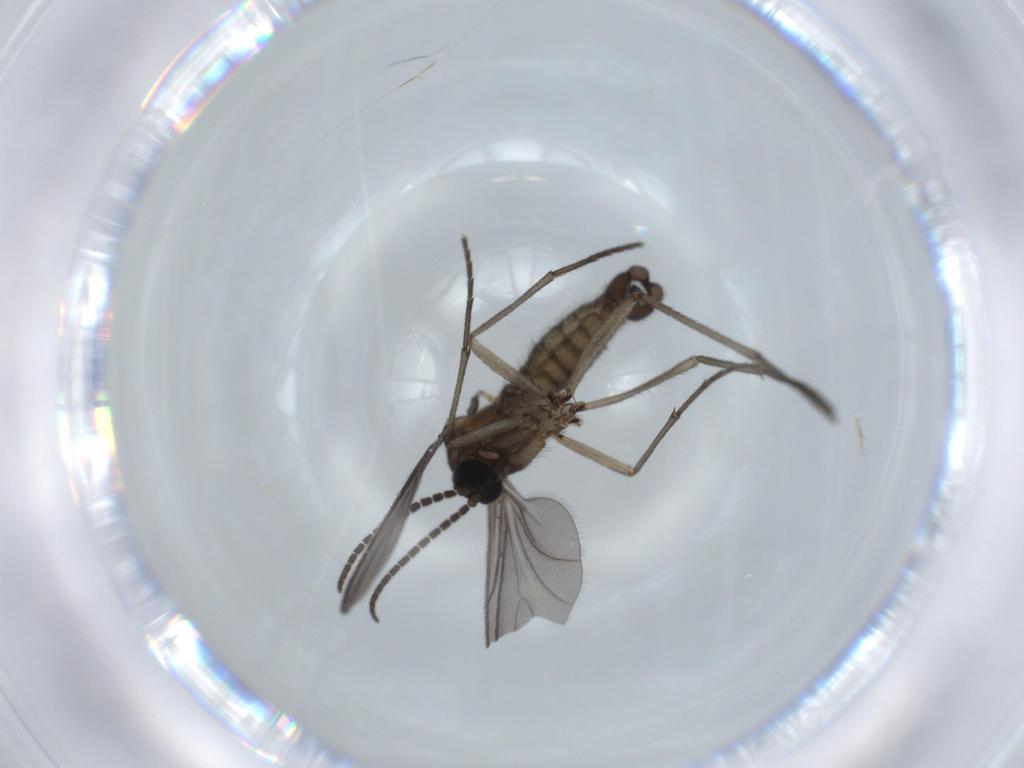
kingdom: Animalia
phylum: Arthropoda
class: Insecta
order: Diptera
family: Sciaridae
